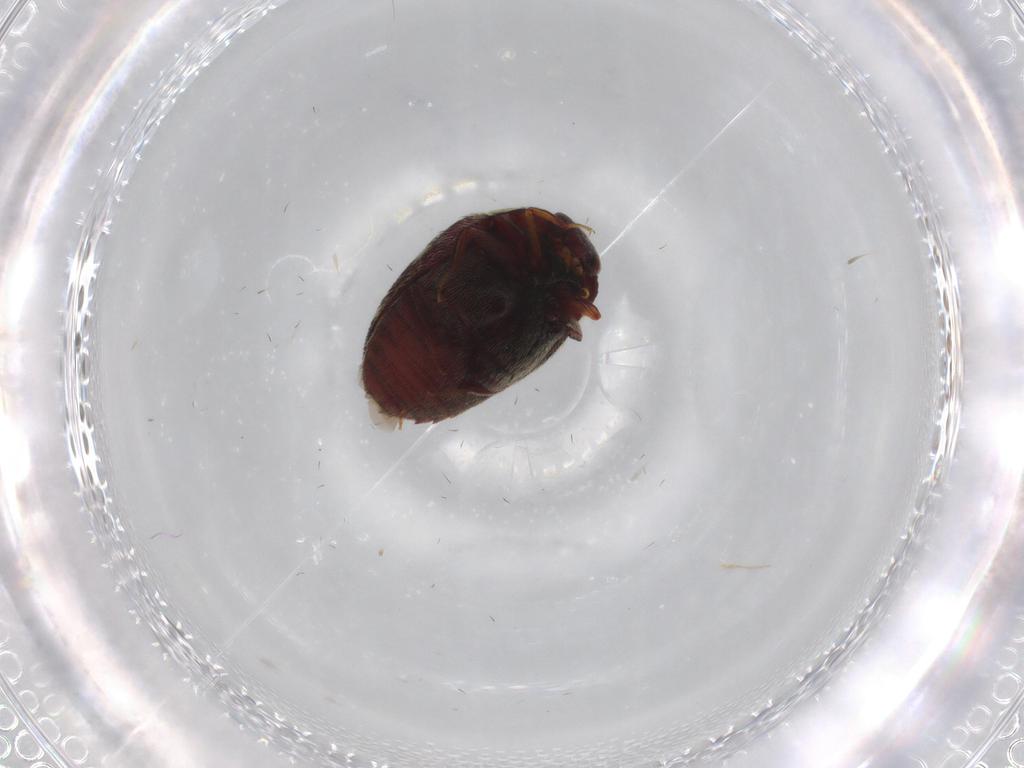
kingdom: Animalia
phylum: Arthropoda
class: Insecta
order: Coleoptera
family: Dermestidae
